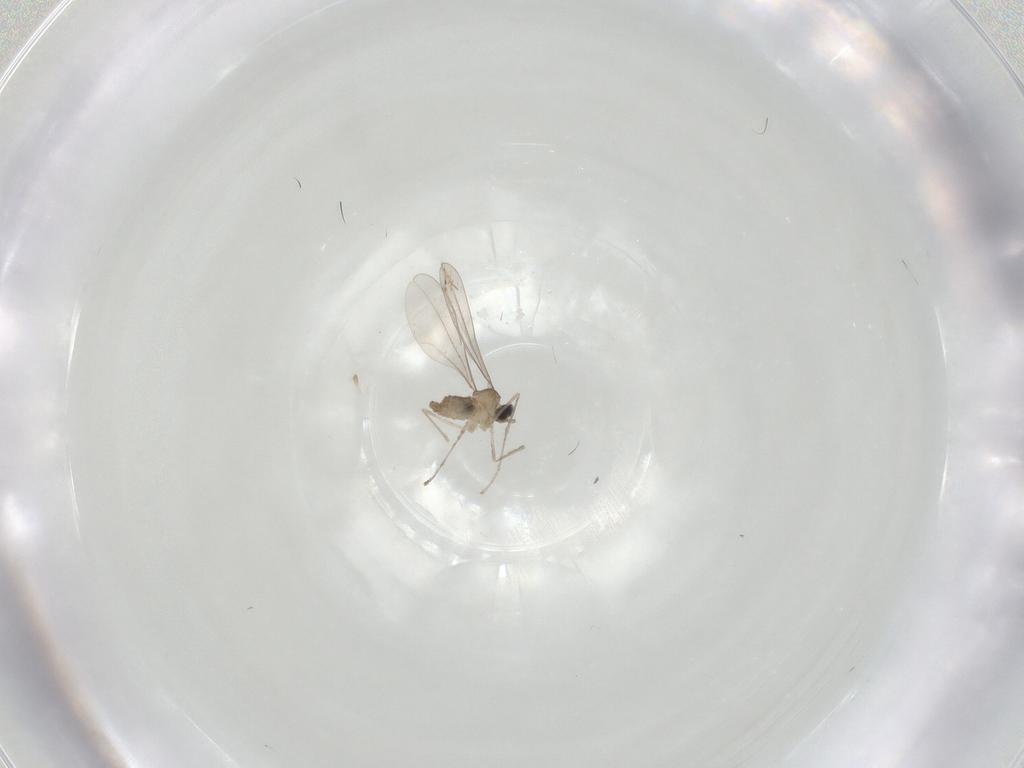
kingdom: Animalia
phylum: Arthropoda
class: Insecta
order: Diptera
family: Cecidomyiidae
